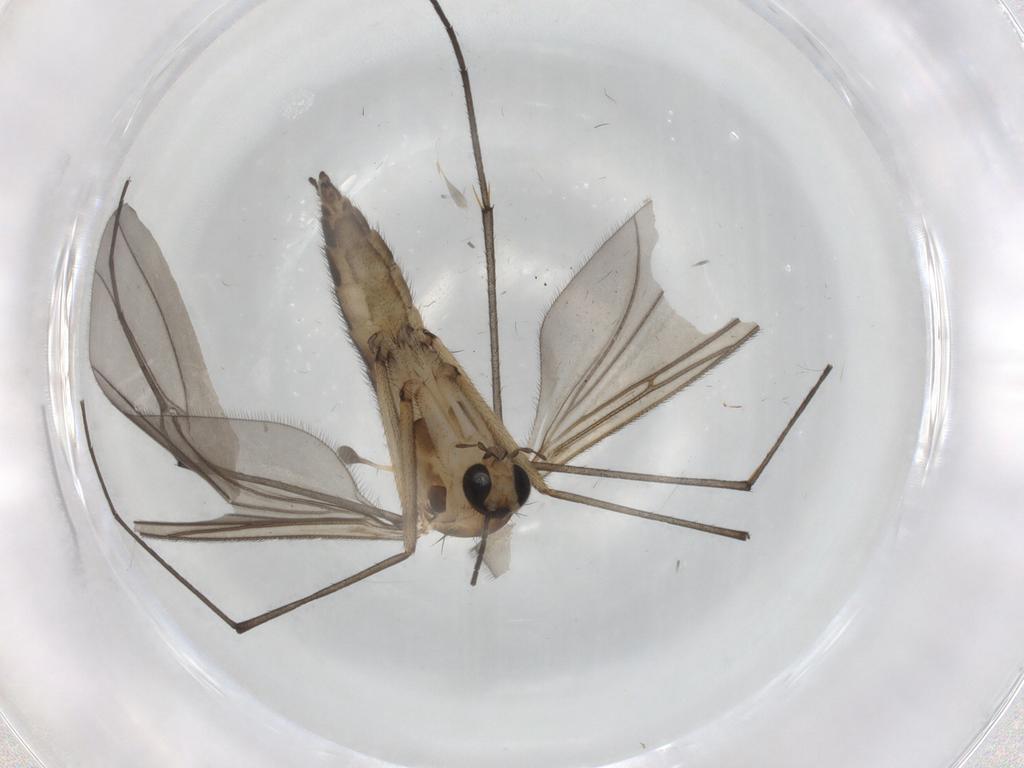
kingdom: Animalia
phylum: Arthropoda
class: Insecta
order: Diptera
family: Sciaridae
